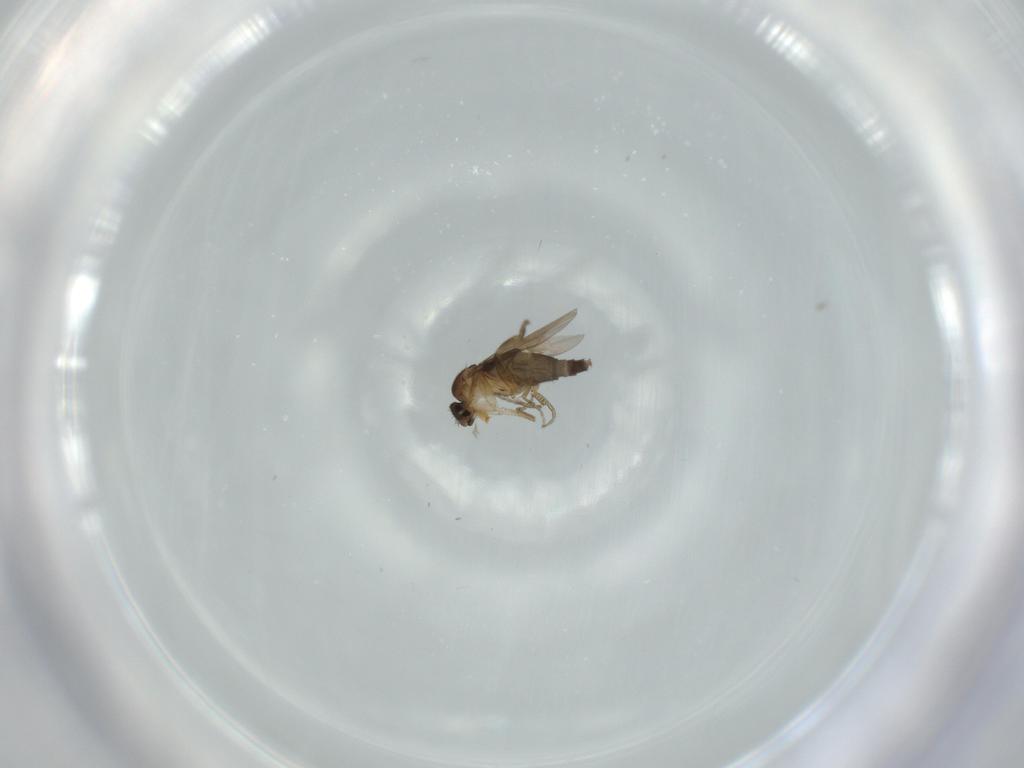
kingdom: Animalia
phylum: Arthropoda
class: Insecta
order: Diptera
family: Phoridae
